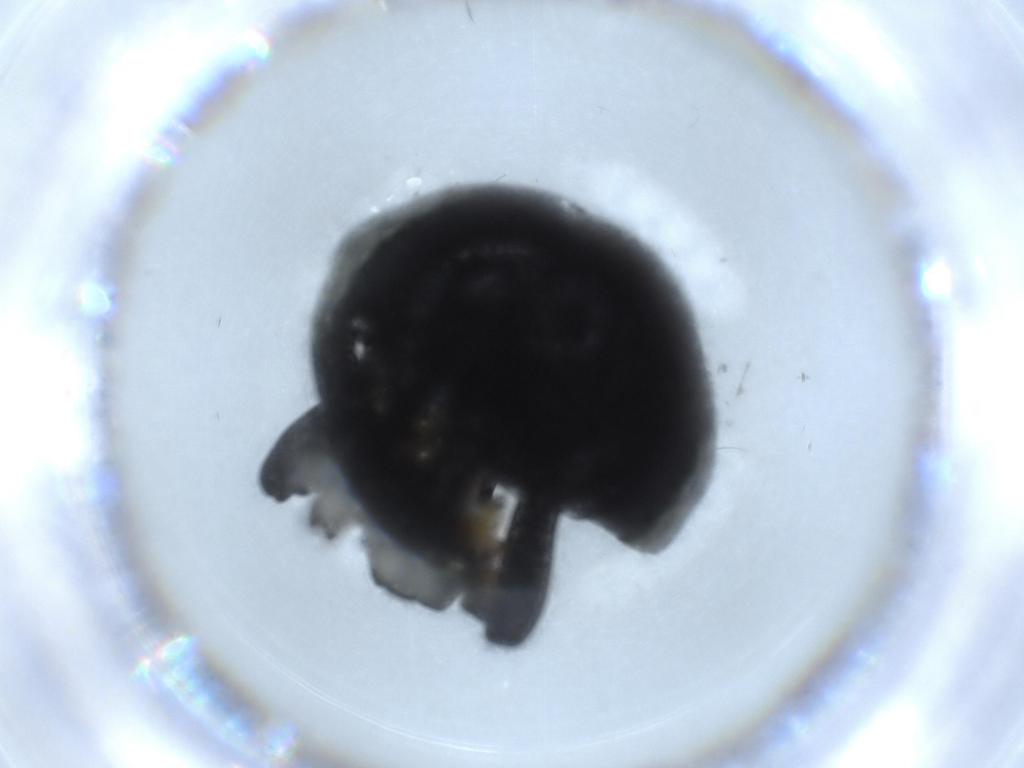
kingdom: Animalia
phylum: Arthropoda
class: Insecta
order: Coleoptera
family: Chrysomelidae
